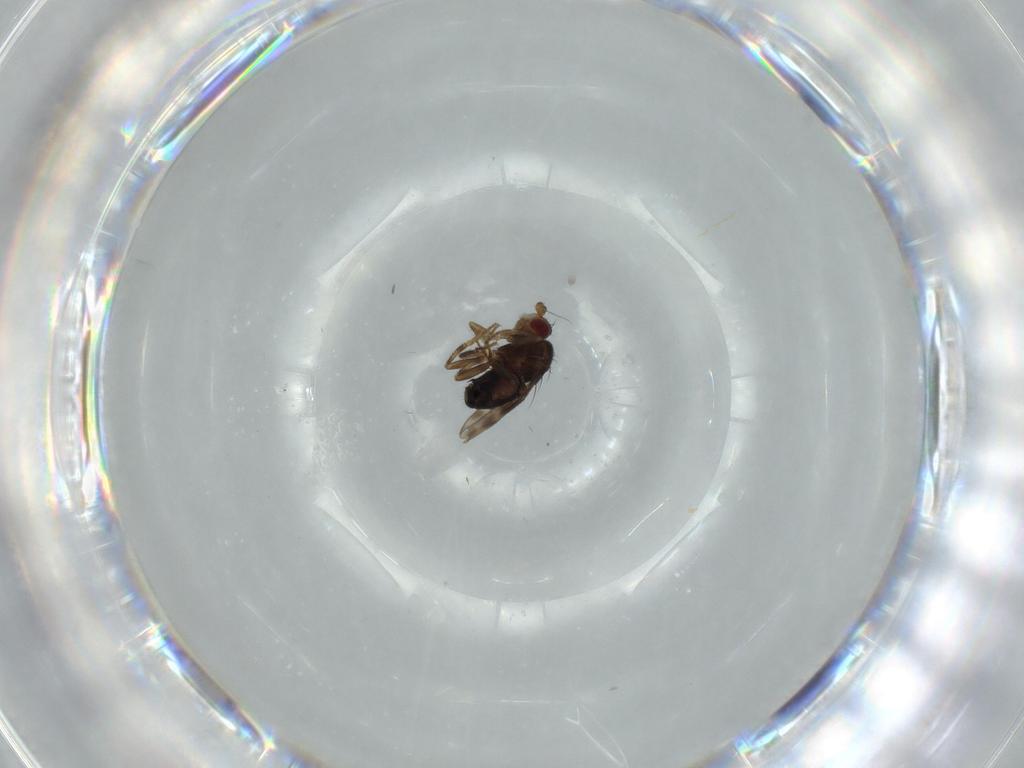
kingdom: Animalia
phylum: Arthropoda
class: Insecta
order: Diptera
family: Sphaeroceridae
